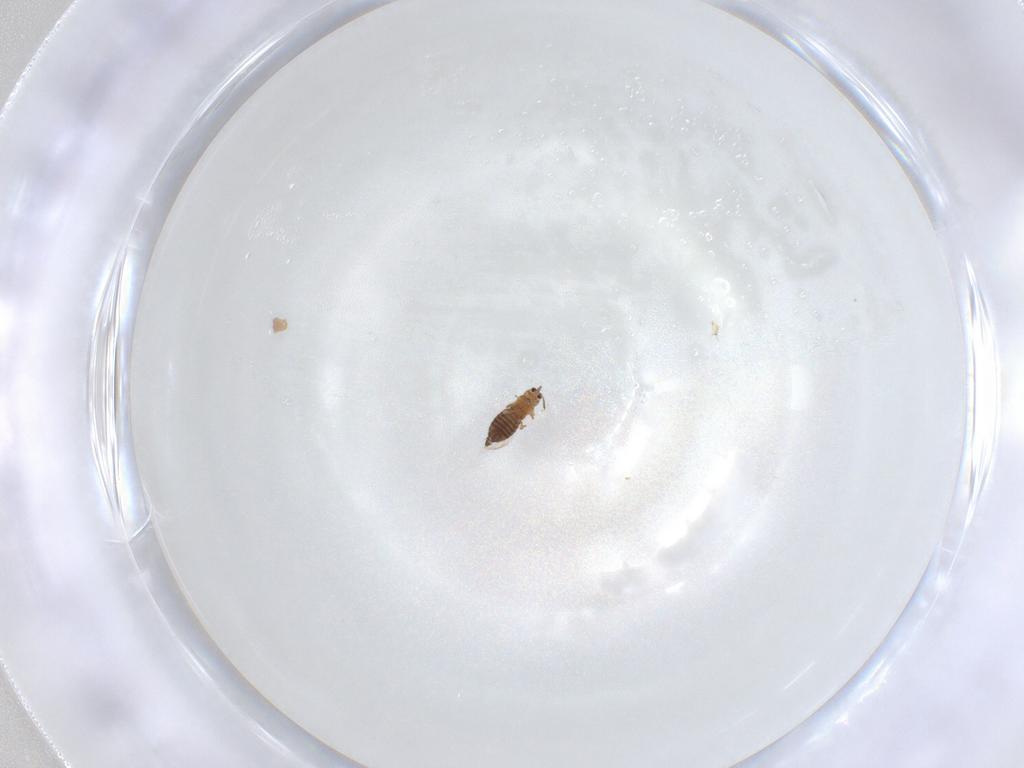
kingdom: Animalia
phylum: Arthropoda
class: Insecta
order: Thysanoptera
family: Thripidae
